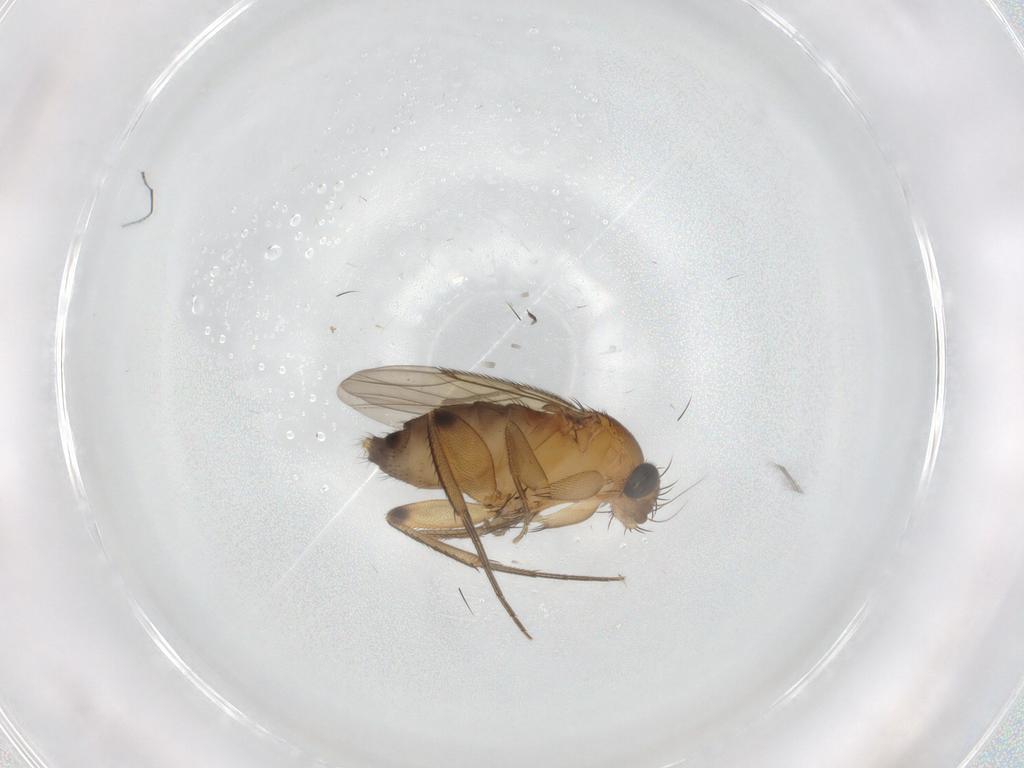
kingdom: Animalia
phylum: Arthropoda
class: Insecta
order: Diptera
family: Phoridae
